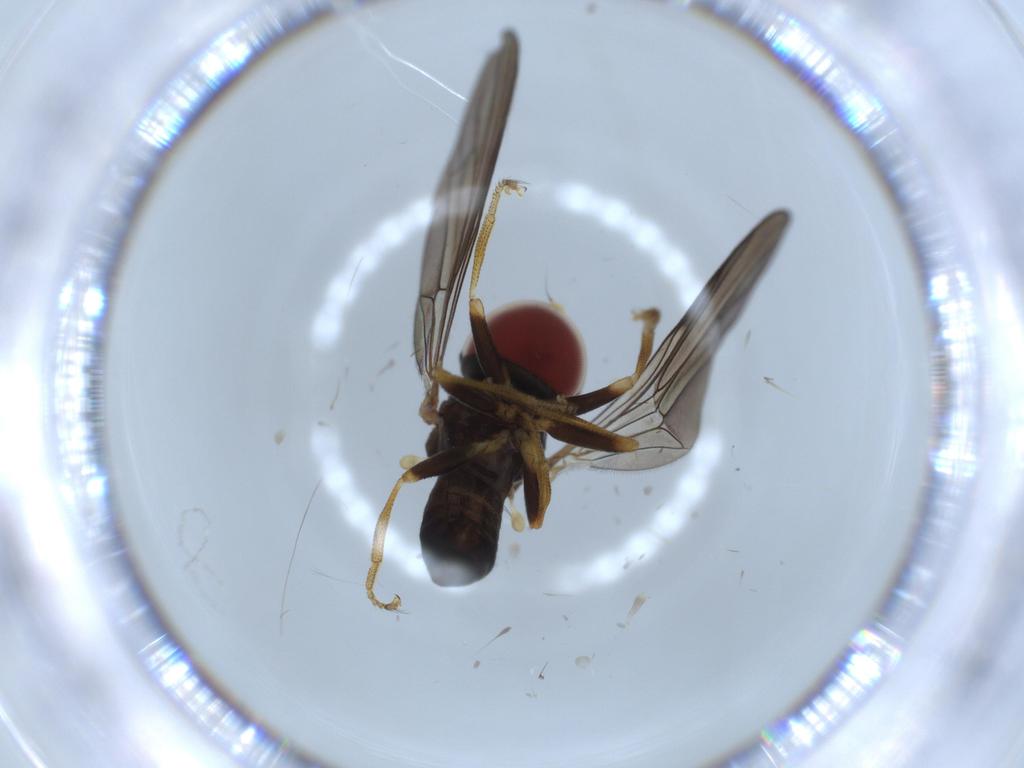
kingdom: Animalia
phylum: Arthropoda
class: Insecta
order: Diptera
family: Pipunculidae
